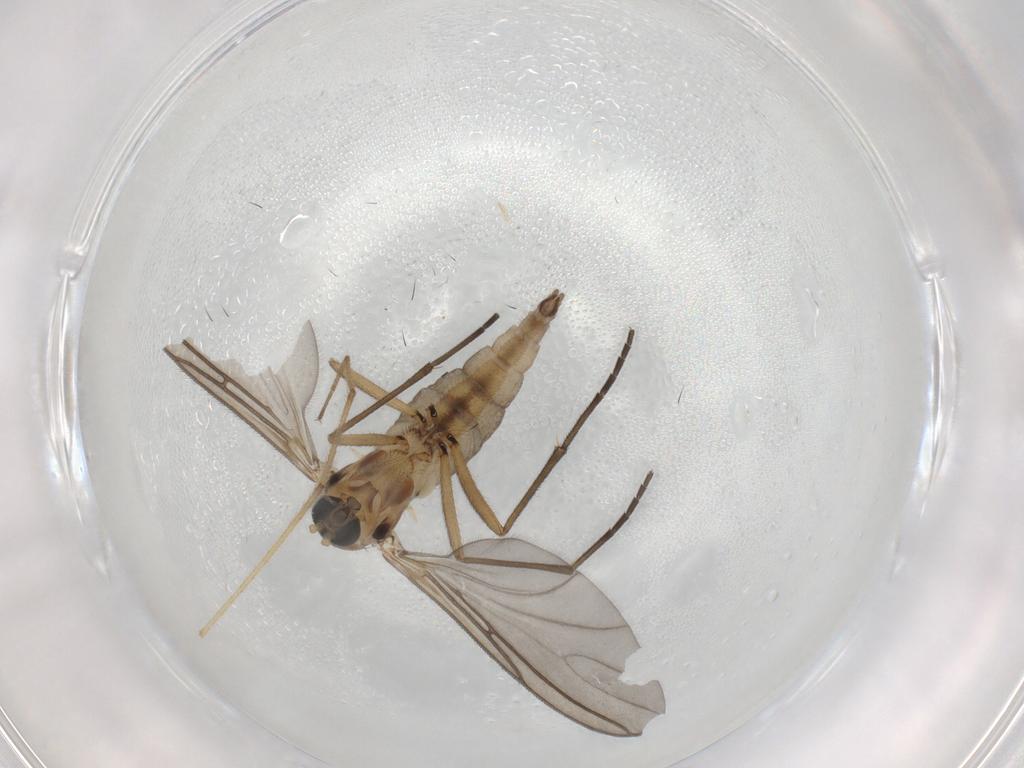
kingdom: Animalia
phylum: Arthropoda
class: Insecta
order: Diptera
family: Sciaridae
